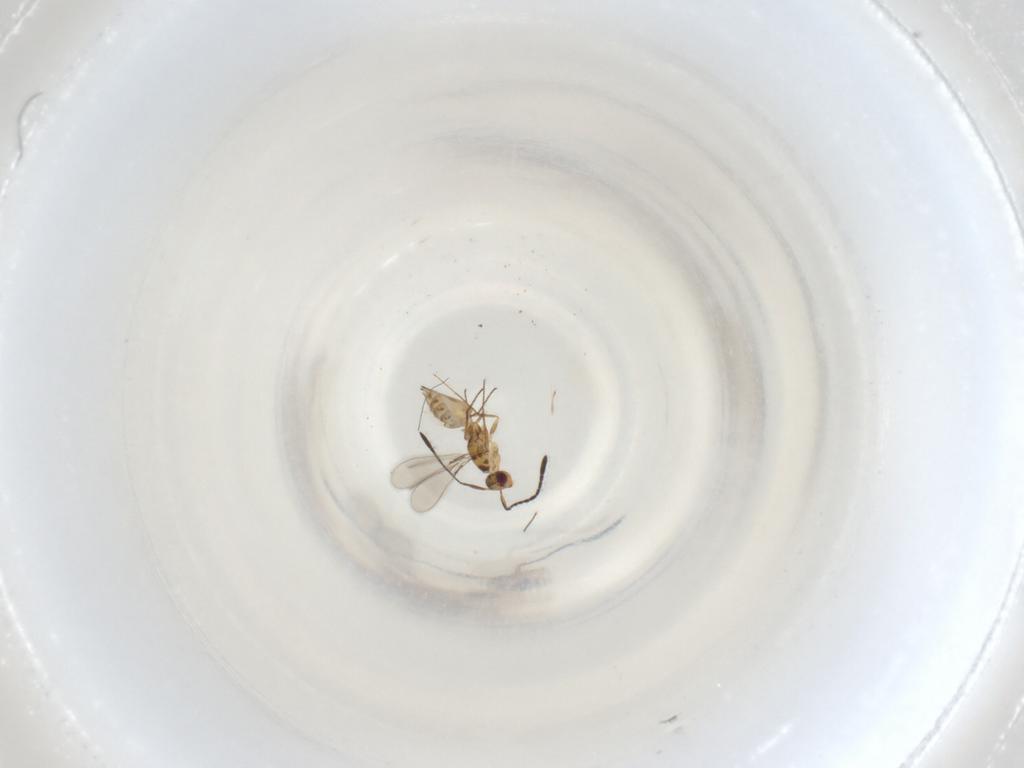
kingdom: Animalia
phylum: Arthropoda
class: Insecta
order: Hymenoptera
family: Mymaridae
